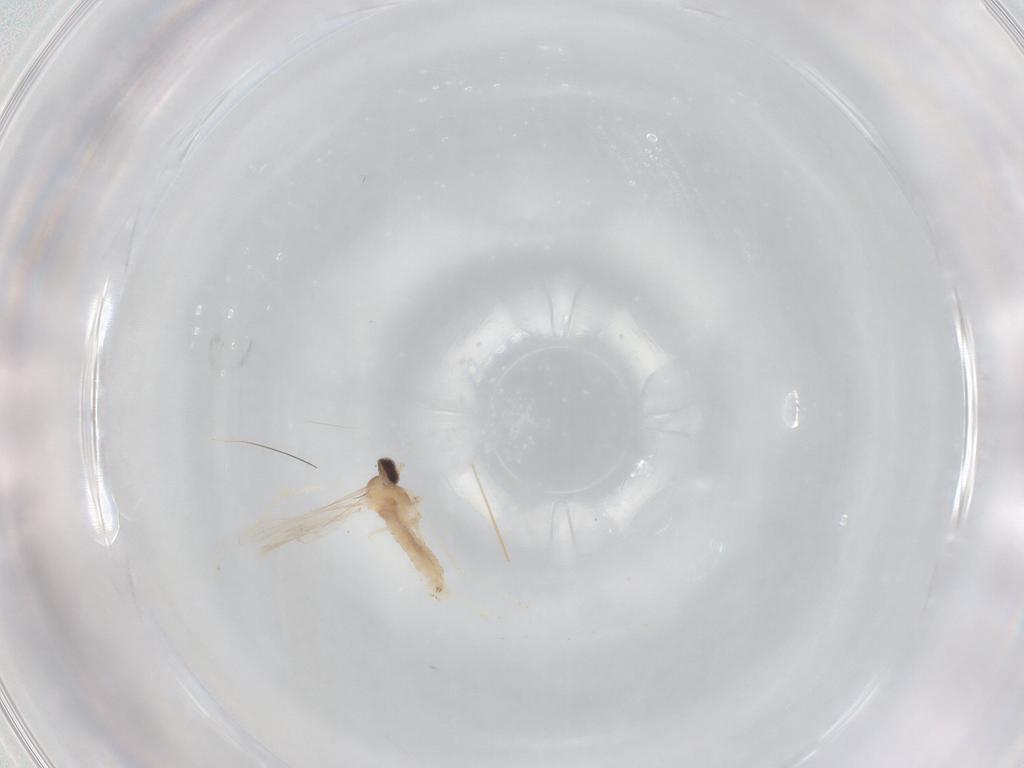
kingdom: Animalia
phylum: Arthropoda
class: Insecta
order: Diptera
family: Cecidomyiidae
